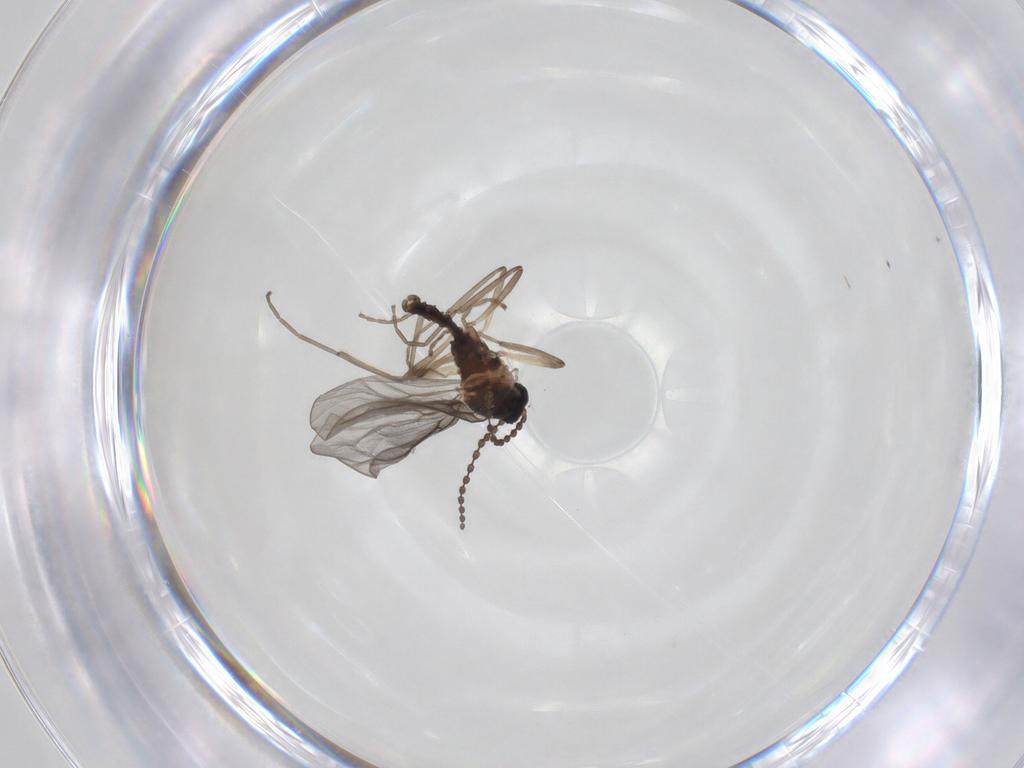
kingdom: Animalia
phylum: Arthropoda
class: Insecta
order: Diptera
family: Cecidomyiidae
